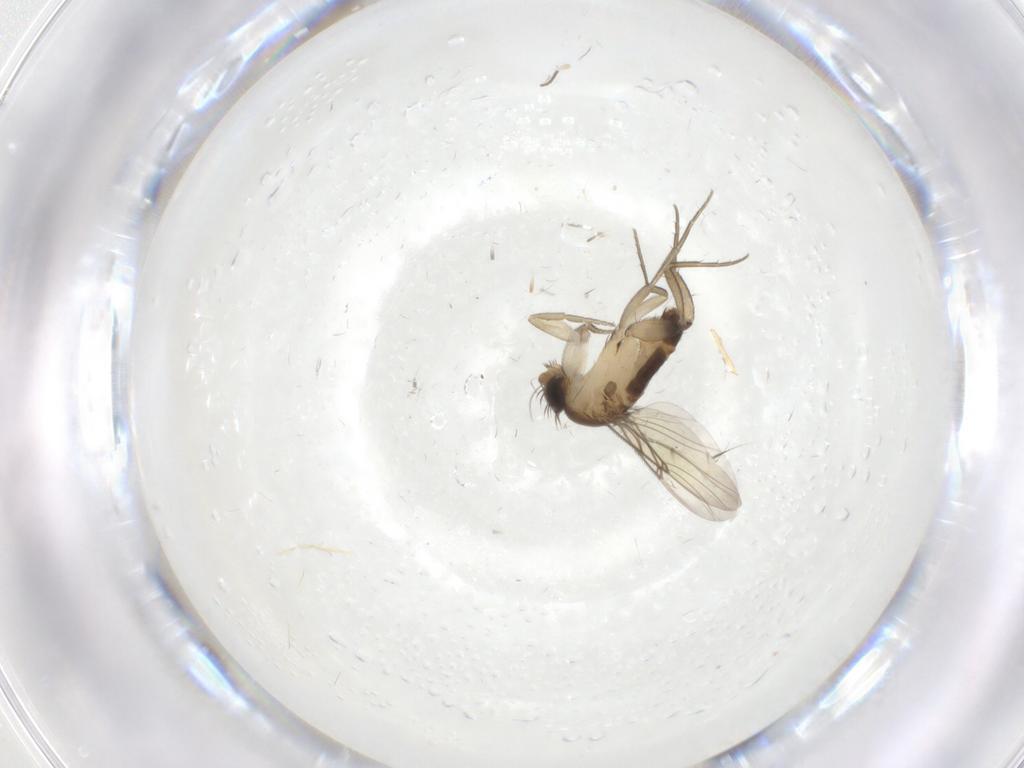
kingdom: Animalia
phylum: Arthropoda
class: Insecta
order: Diptera
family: Phoridae
